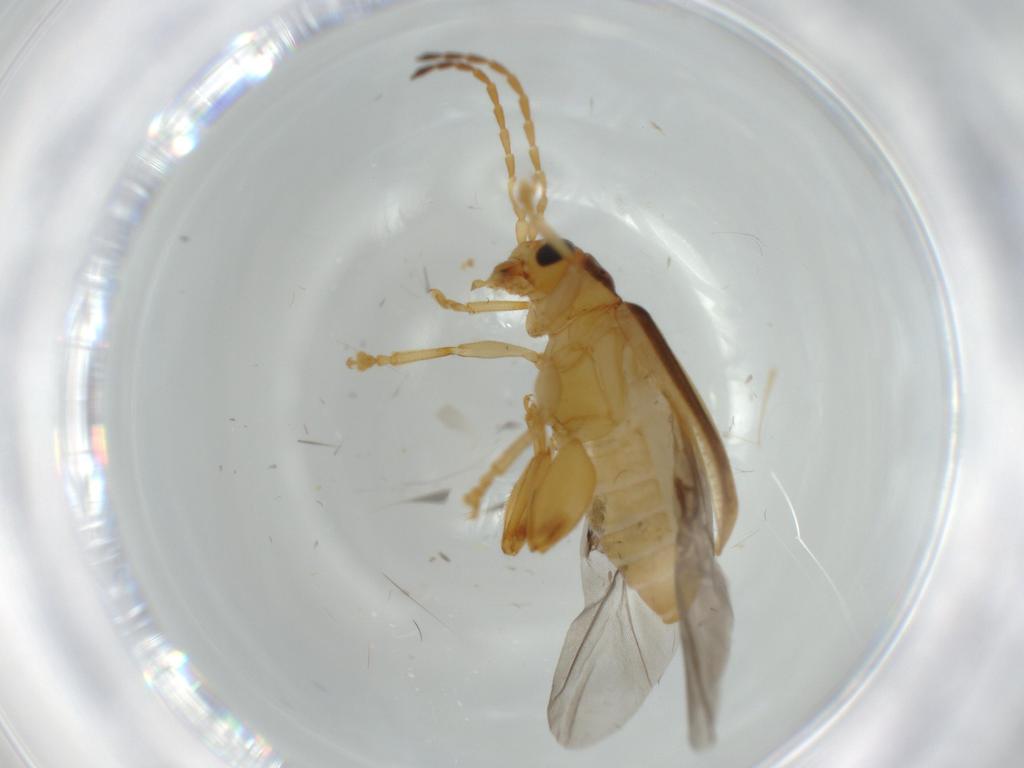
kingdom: Animalia
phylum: Arthropoda
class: Insecta
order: Coleoptera
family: Chrysomelidae
